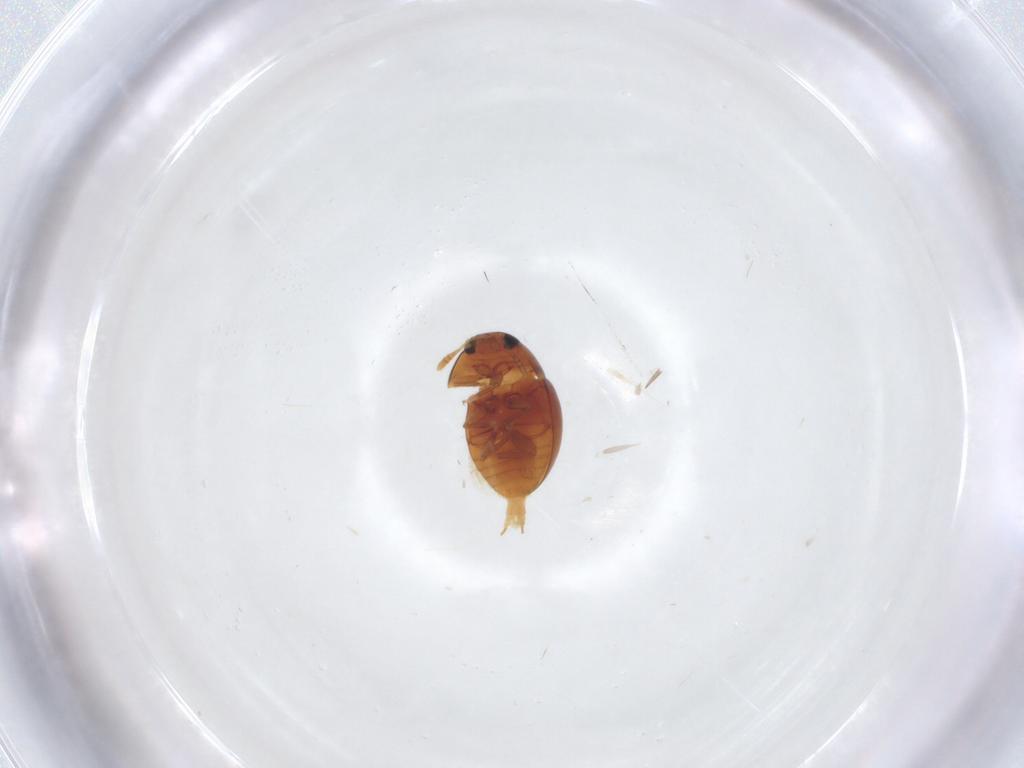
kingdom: Animalia
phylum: Arthropoda
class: Insecta
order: Coleoptera
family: Phalacridae
